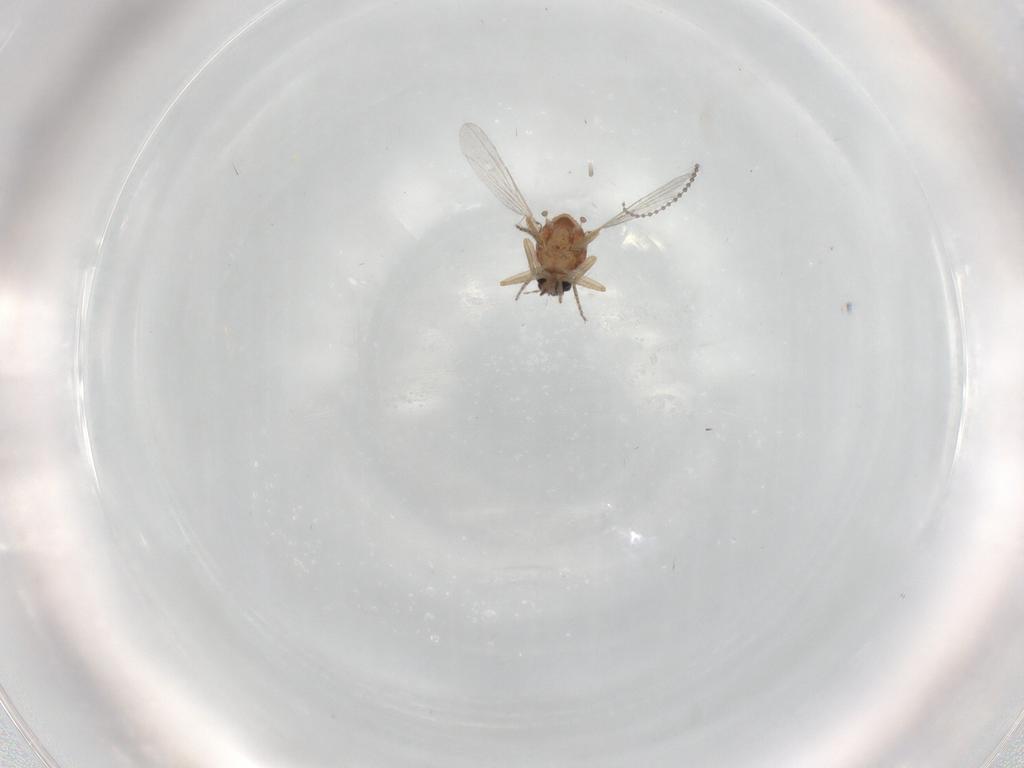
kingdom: Animalia
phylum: Arthropoda
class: Insecta
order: Diptera
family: Ceratopogonidae
